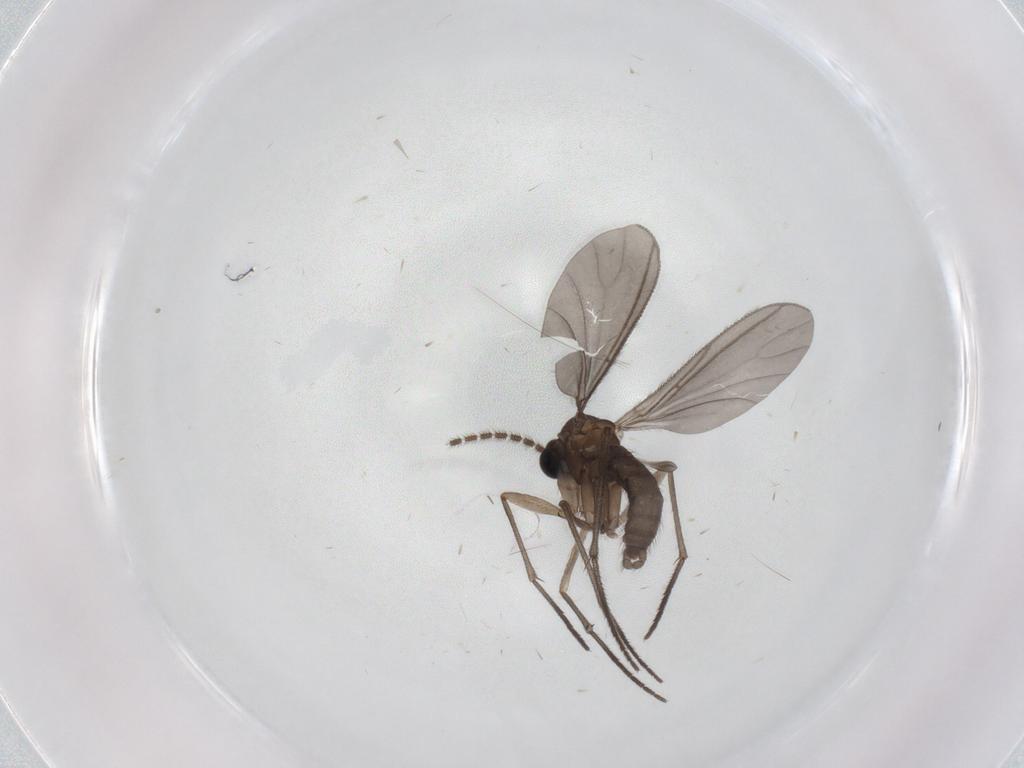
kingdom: Animalia
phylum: Arthropoda
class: Insecta
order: Diptera
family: Sciaridae
